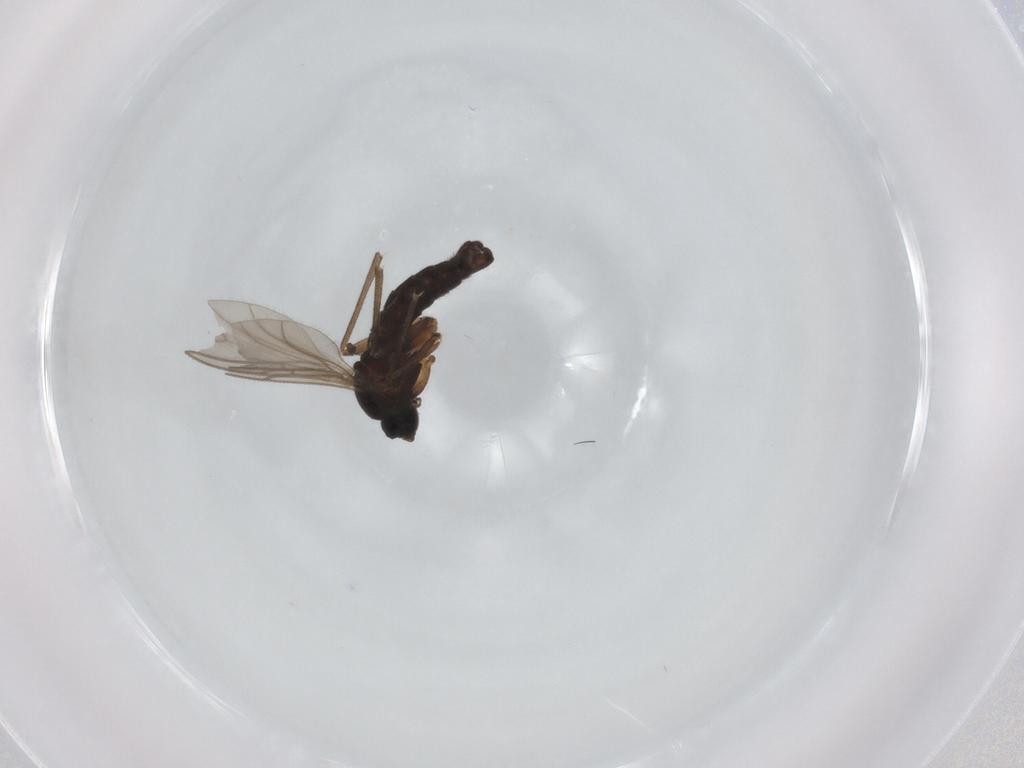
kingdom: Animalia
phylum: Arthropoda
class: Insecta
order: Diptera
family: Sciaridae
